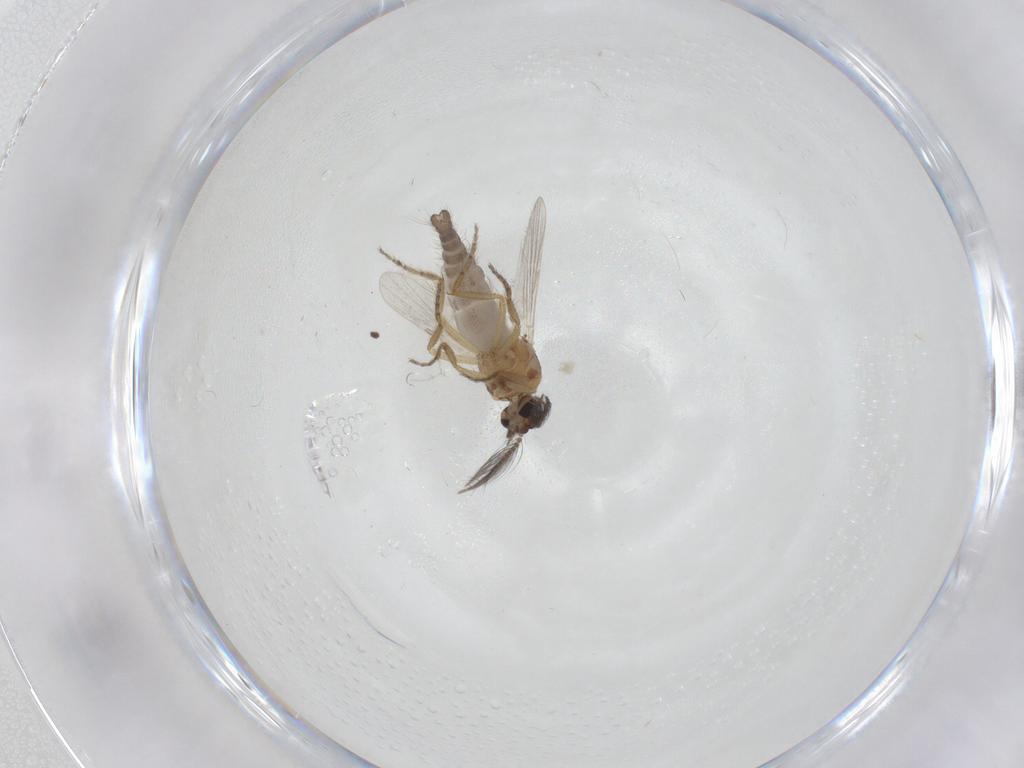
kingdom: Animalia
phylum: Arthropoda
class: Insecta
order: Diptera
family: Ceratopogonidae
